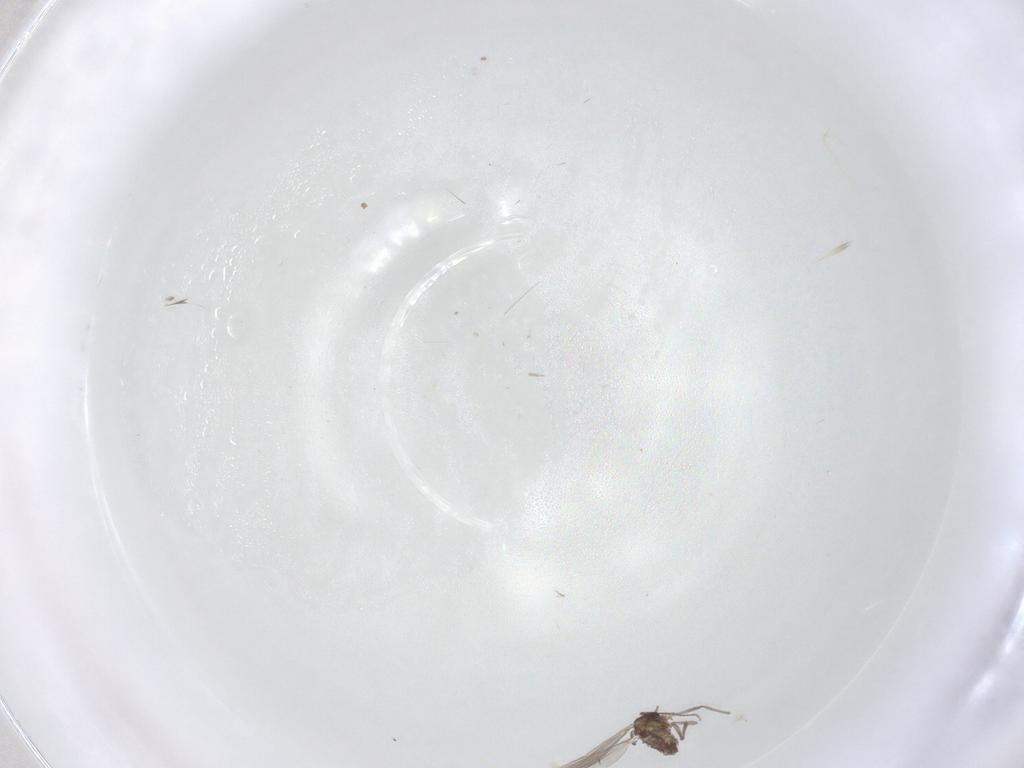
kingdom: Animalia
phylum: Arthropoda
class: Insecta
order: Diptera
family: Chironomidae
